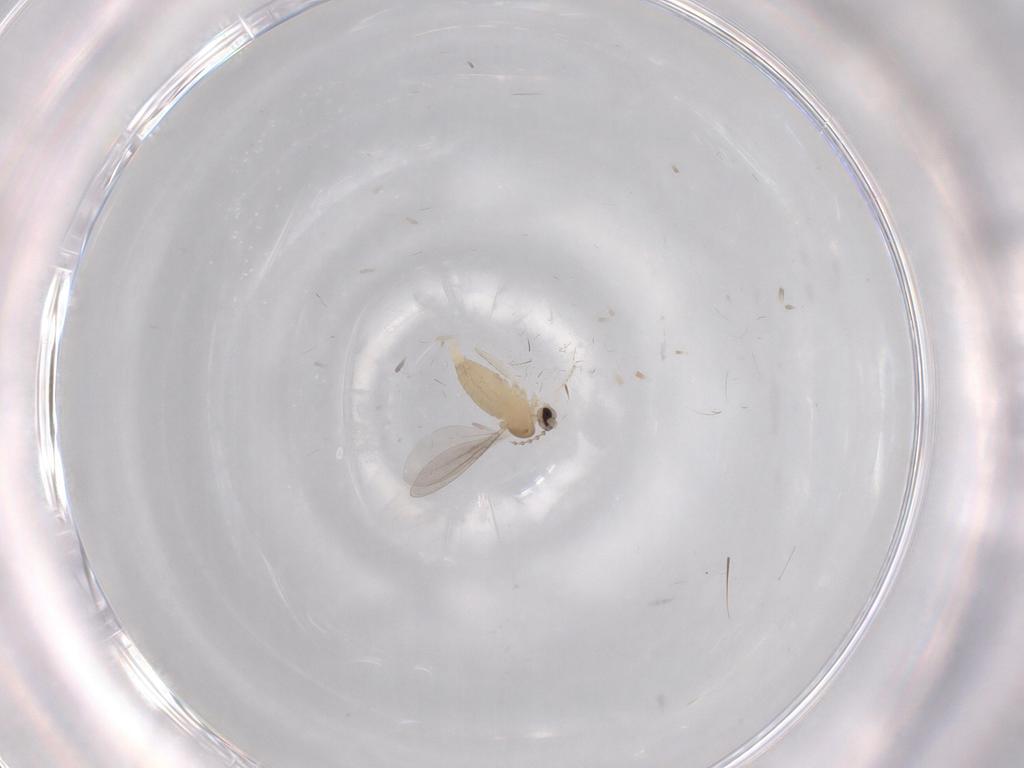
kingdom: Animalia
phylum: Arthropoda
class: Insecta
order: Diptera
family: Cecidomyiidae
